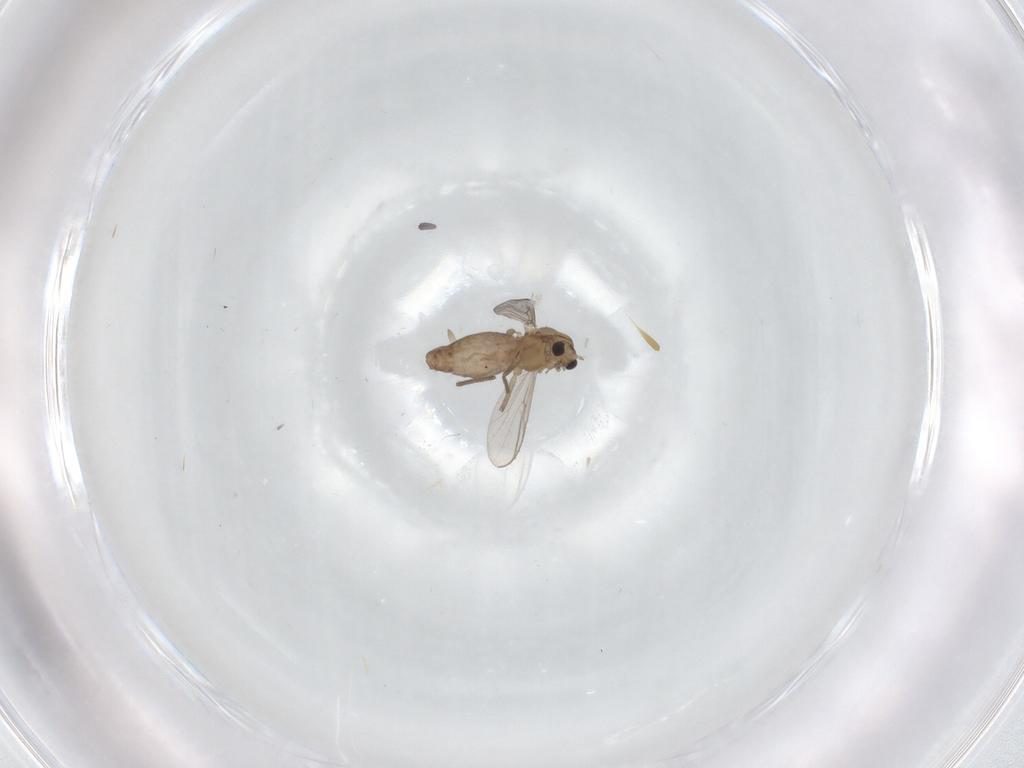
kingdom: Animalia
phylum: Arthropoda
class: Insecta
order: Diptera
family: Chironomidae
